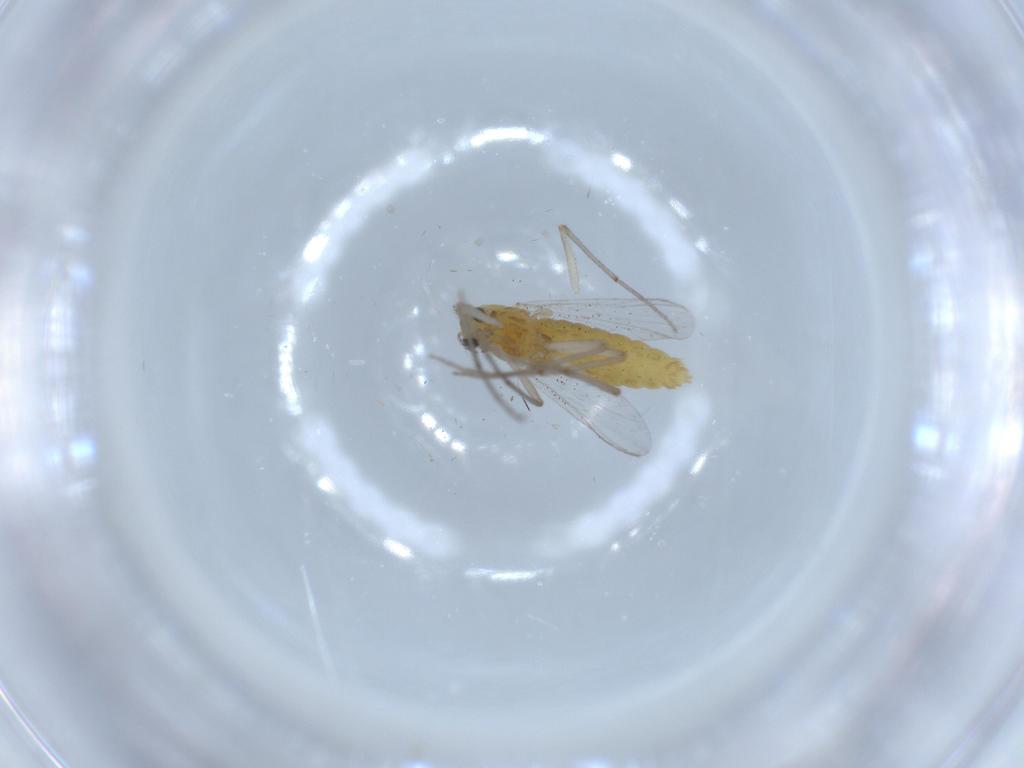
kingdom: Animalia
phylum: Arthropoda
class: Insecta
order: Diptera
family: Chironomidae
